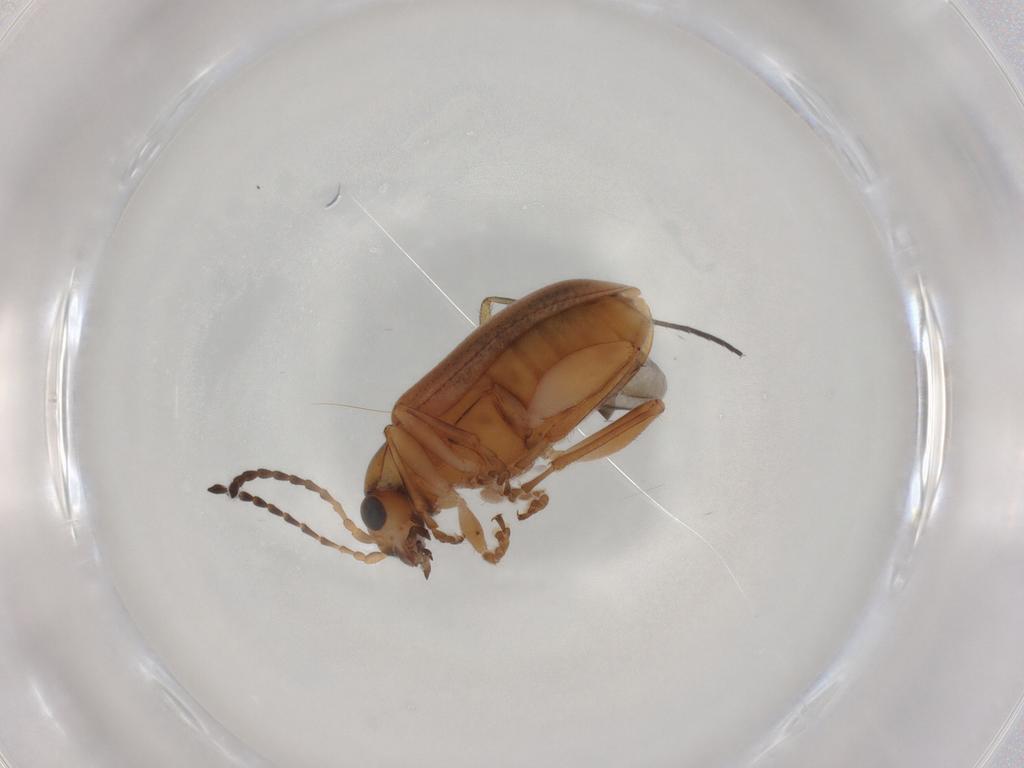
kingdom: Animalia
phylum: Arthropoda
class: Insecta
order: Coleoptera
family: Chrysomelidae
